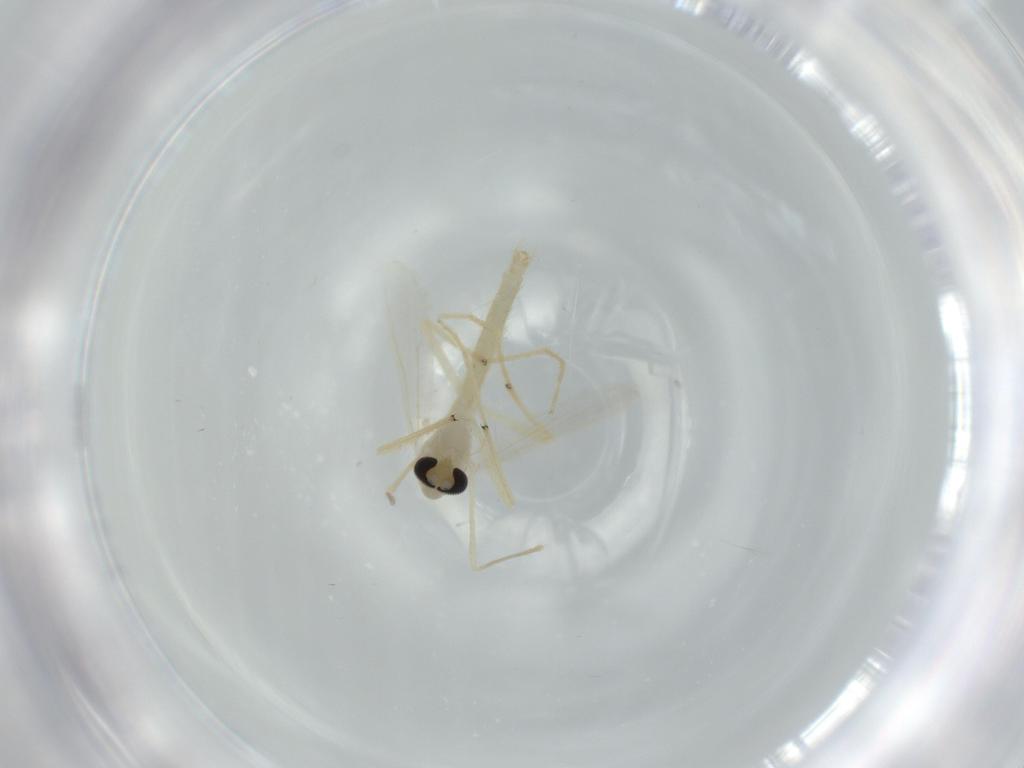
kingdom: Animalia
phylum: Arthropoda
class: Insecta
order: Diptera
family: Chironomidae
